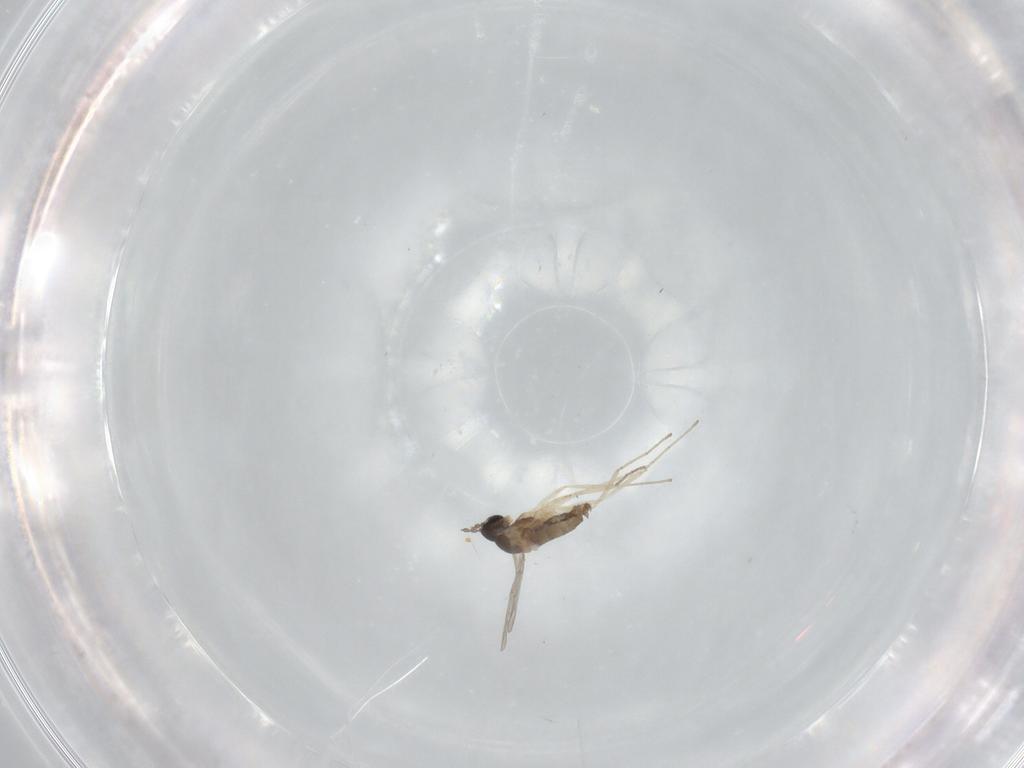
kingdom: Animalia
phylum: Arthropoda
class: Insecta
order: Diptera
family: Cecidomyiidae
